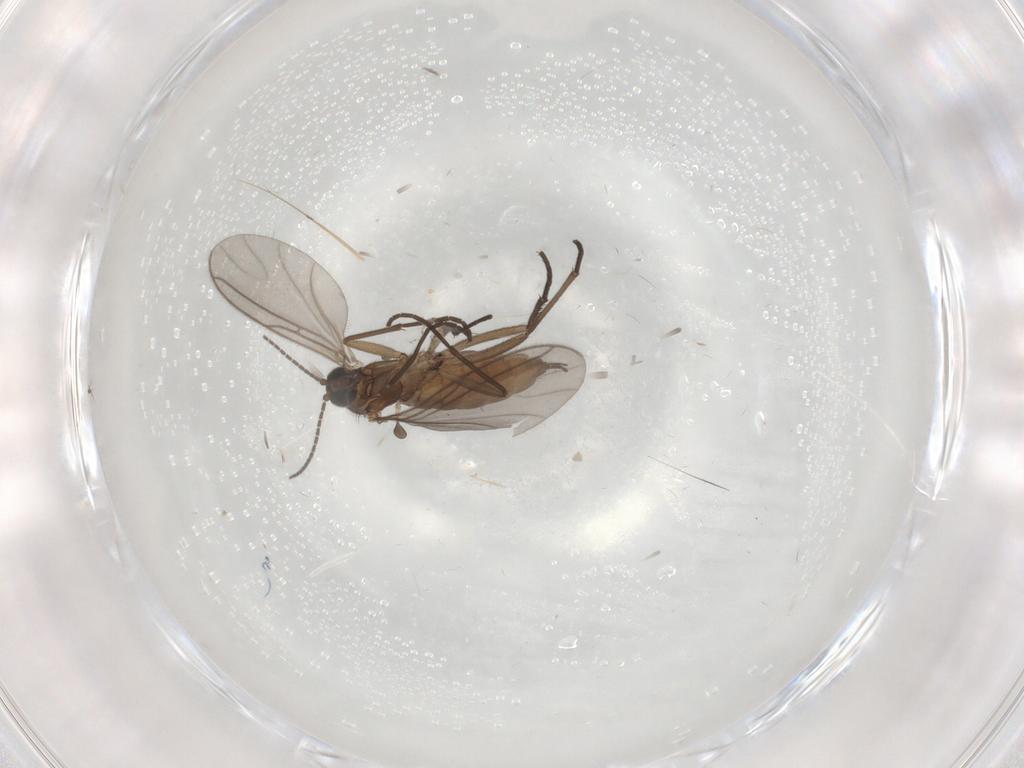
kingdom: Animalia
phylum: Arthropoda
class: Insecta
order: Diptera
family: Sciaridae
